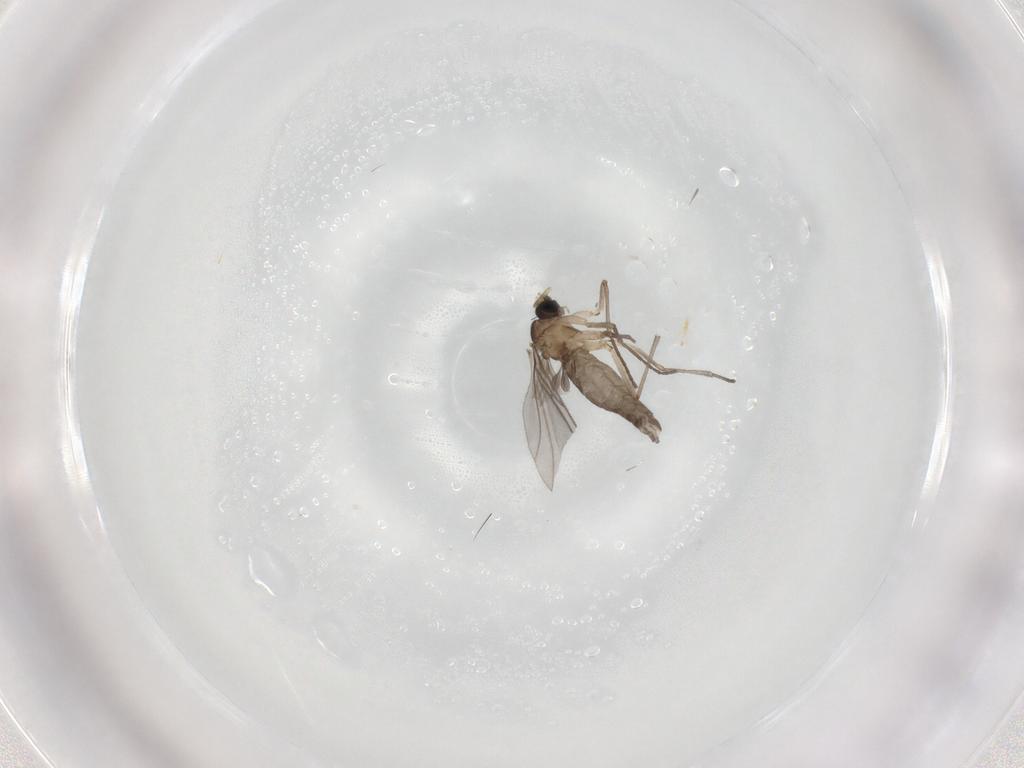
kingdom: Animalia
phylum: Arthropoda
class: Insecta
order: Diptera
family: Sciaridae
